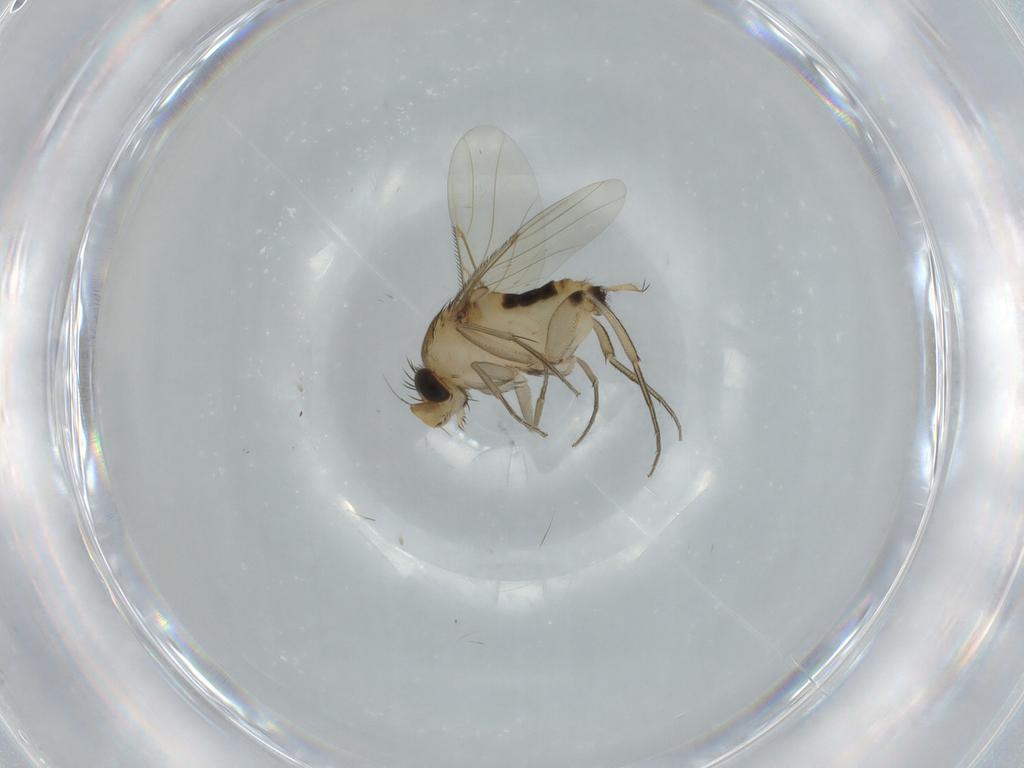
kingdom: Animalia
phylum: Arthropoda
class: Insecta
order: Diptera
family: Phoridae
